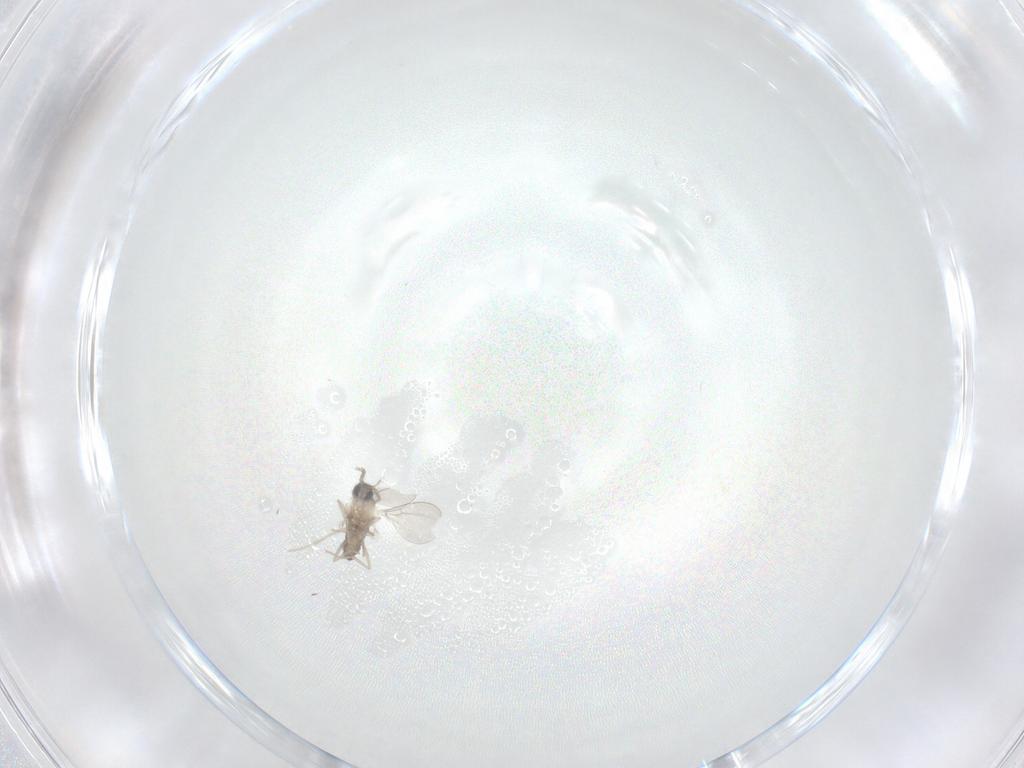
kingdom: Animalia
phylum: Arthropoda
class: Insecta
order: Diptera
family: Cecidomyiidae
